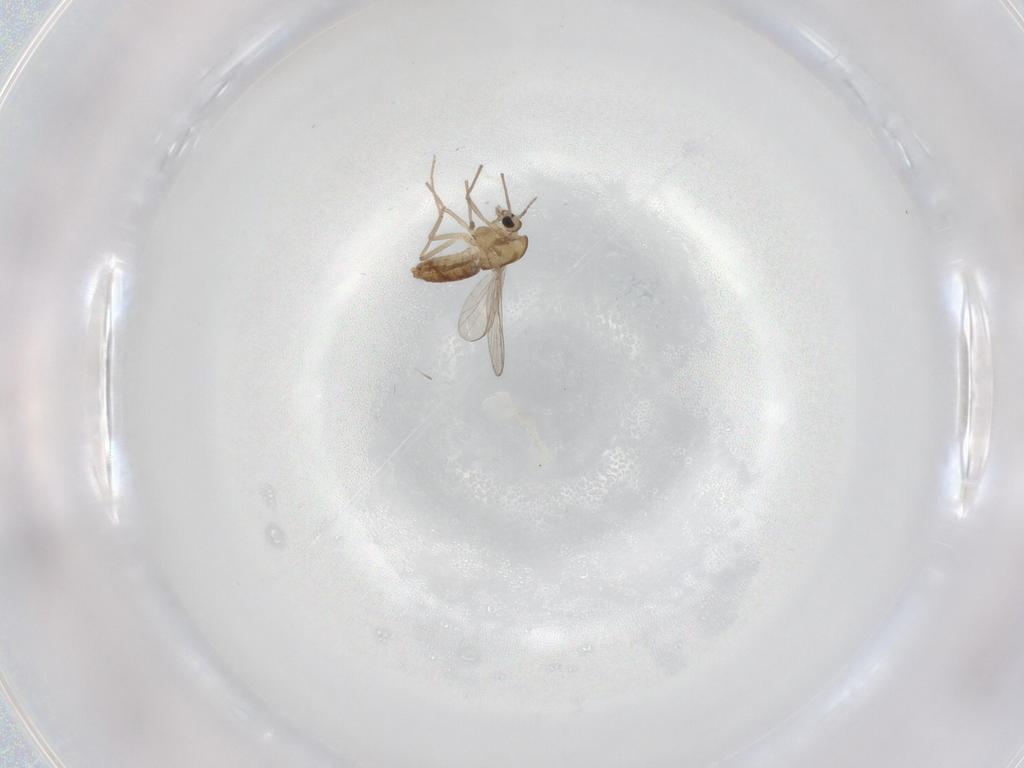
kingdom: Animalia
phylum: Arthropoda
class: Insecta
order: Diptera
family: Chironomidae
